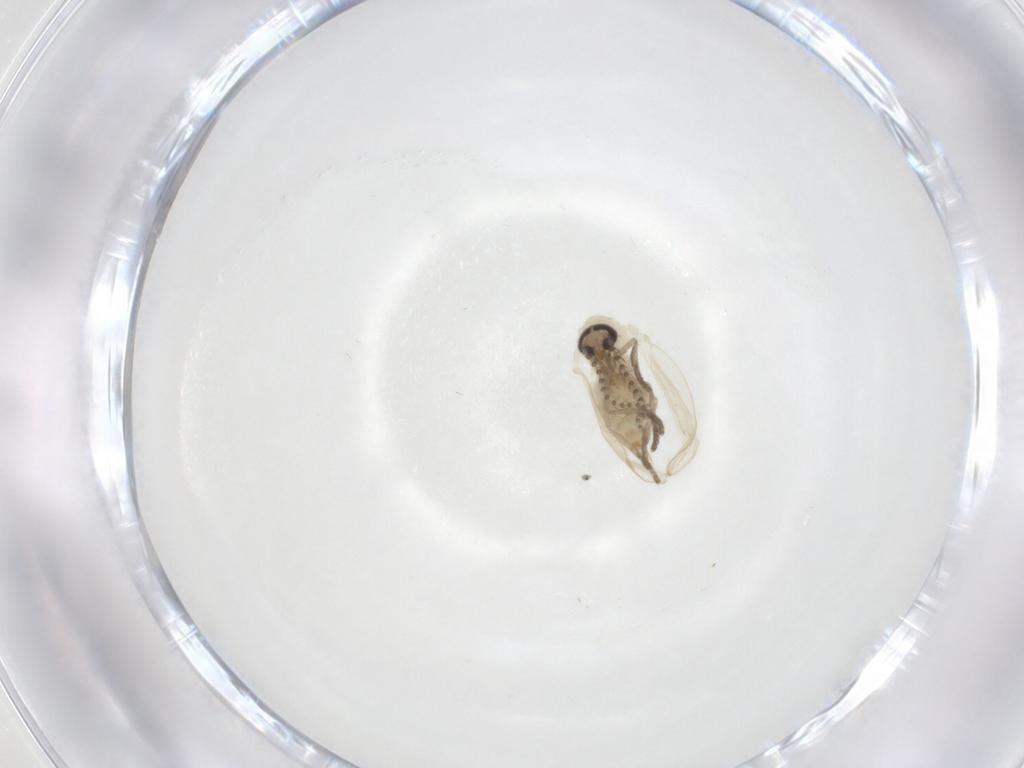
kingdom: Animalia
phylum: Arthropoda
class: Insecta
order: Diptera
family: Psychodidae
